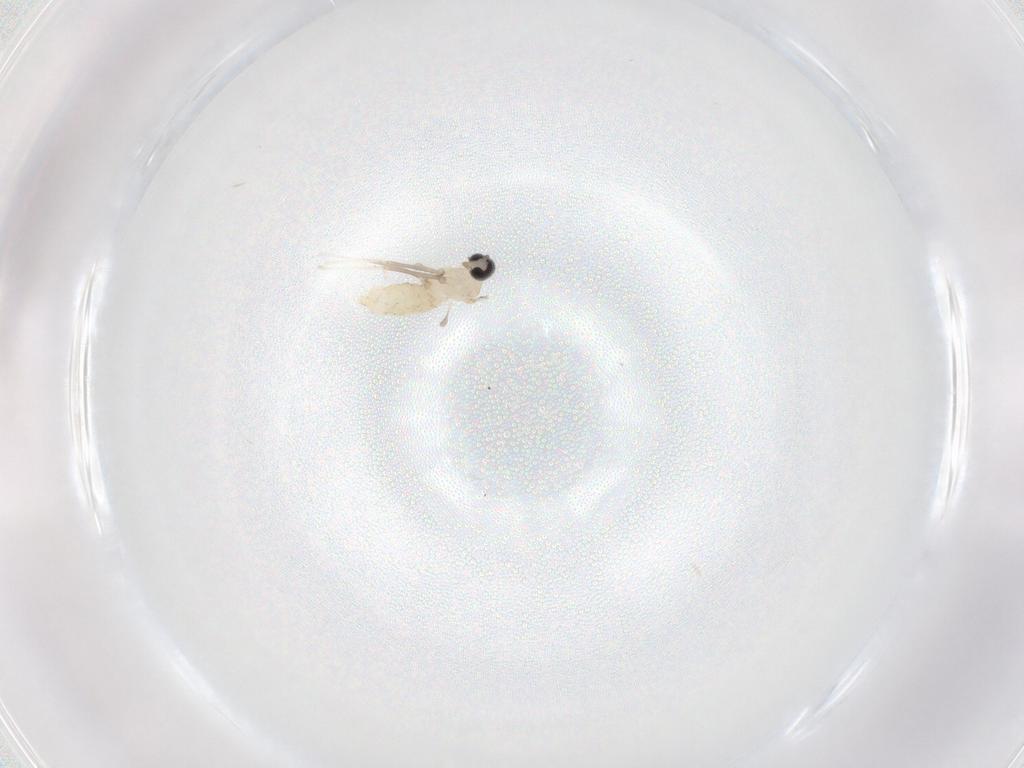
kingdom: Animalia
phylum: Arthropoda
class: Insecta
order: Diptera
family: Cecidomyiidae
